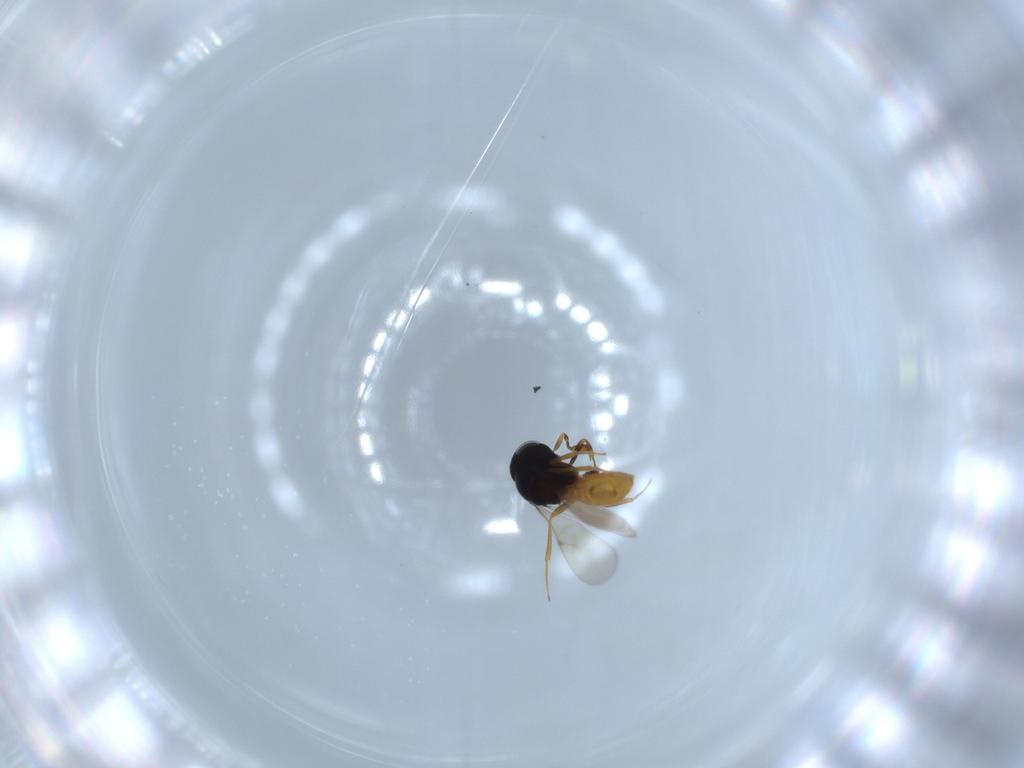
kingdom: Animalia
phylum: Arthropoda
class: Insecta
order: Hymenoptera
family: Scelionidae
